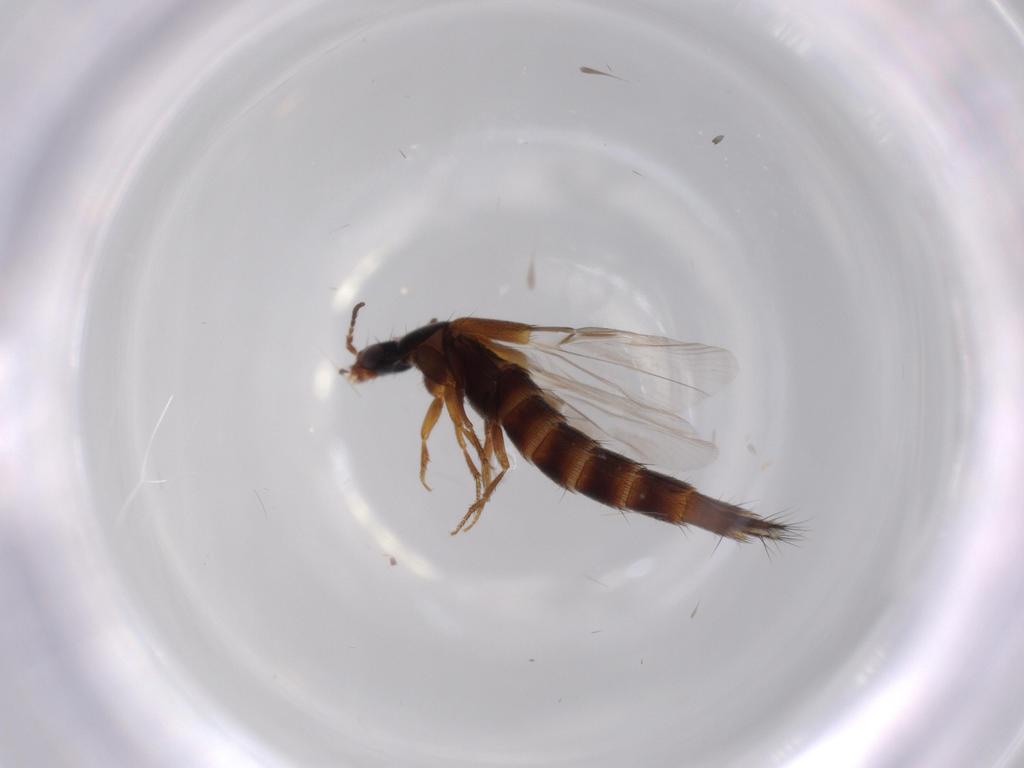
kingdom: Animalia
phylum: Arthropoda
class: Insecta
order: Coleoptera
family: Staphylinidae
